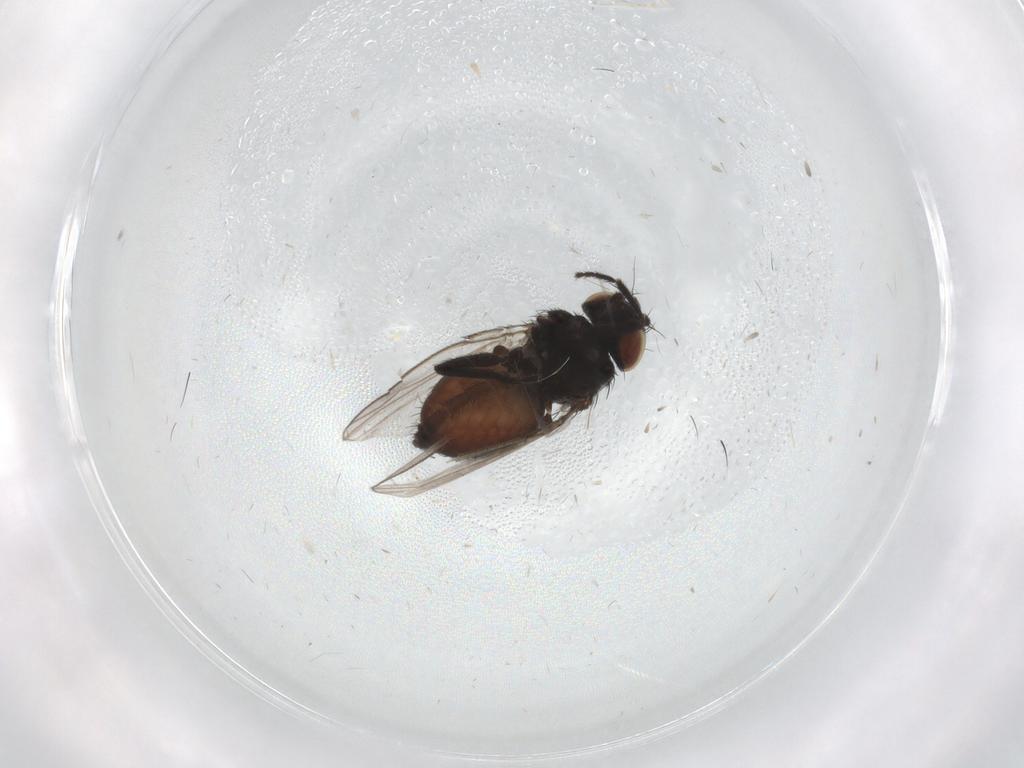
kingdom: Animalia
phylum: Arthropoda
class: Insecta
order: Diptera
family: Milichiidae
